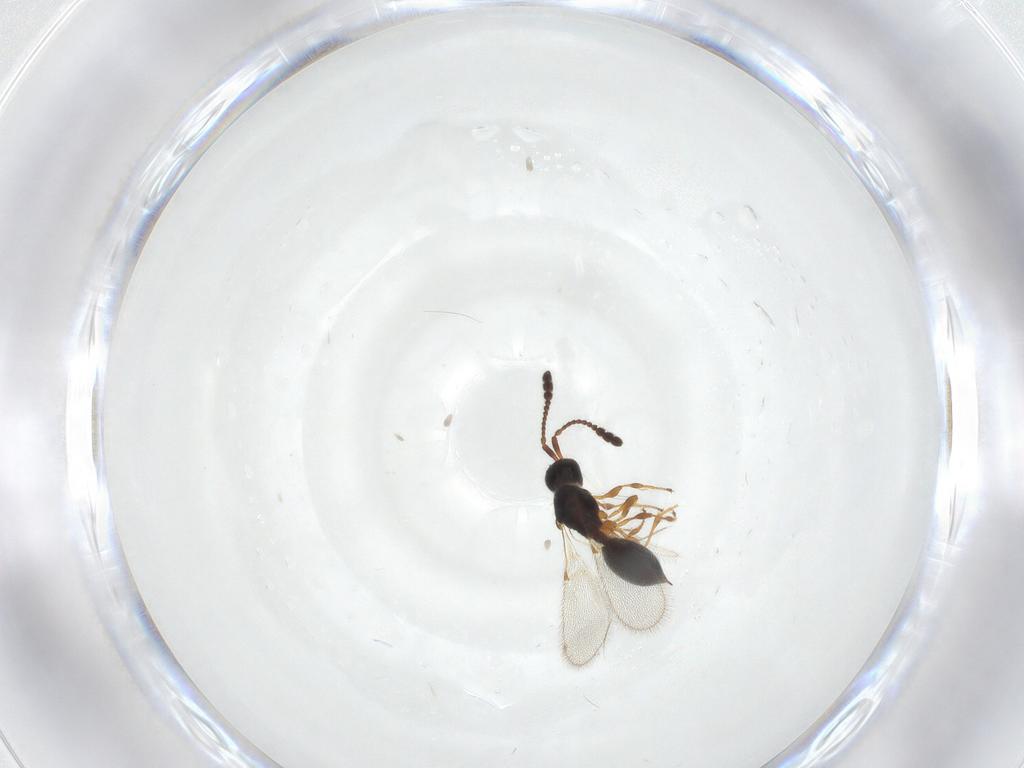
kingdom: Animalia
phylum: Arthropoda
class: Insecta
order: Hymenoptera
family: Diapriidae
